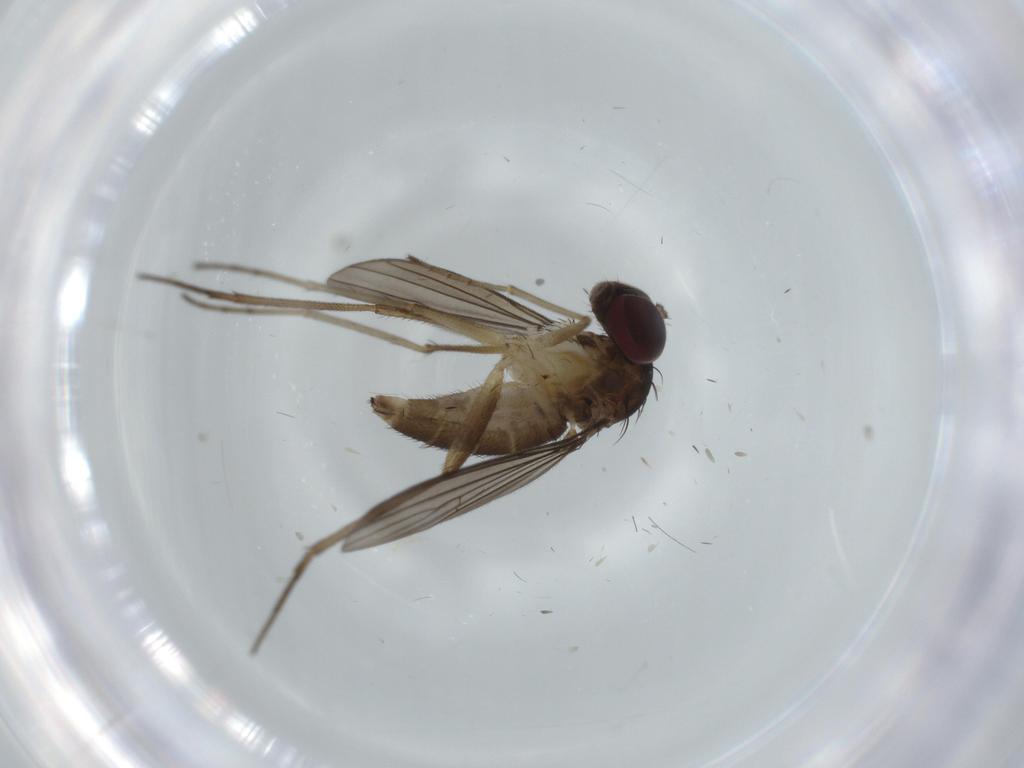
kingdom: Animalia
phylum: Arthropoda
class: Insecta
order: Diptera
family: Dolichopodidae
